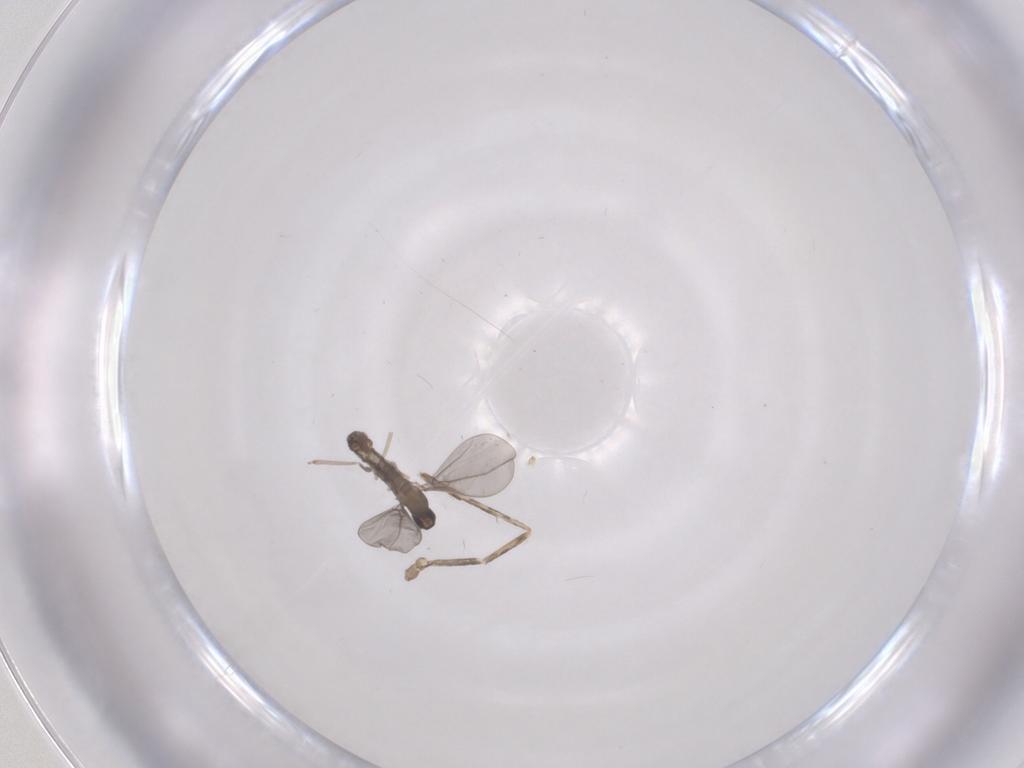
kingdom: Animalia
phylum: Arthropoda
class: Insecta
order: Diptera
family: Cecidomyiidae
